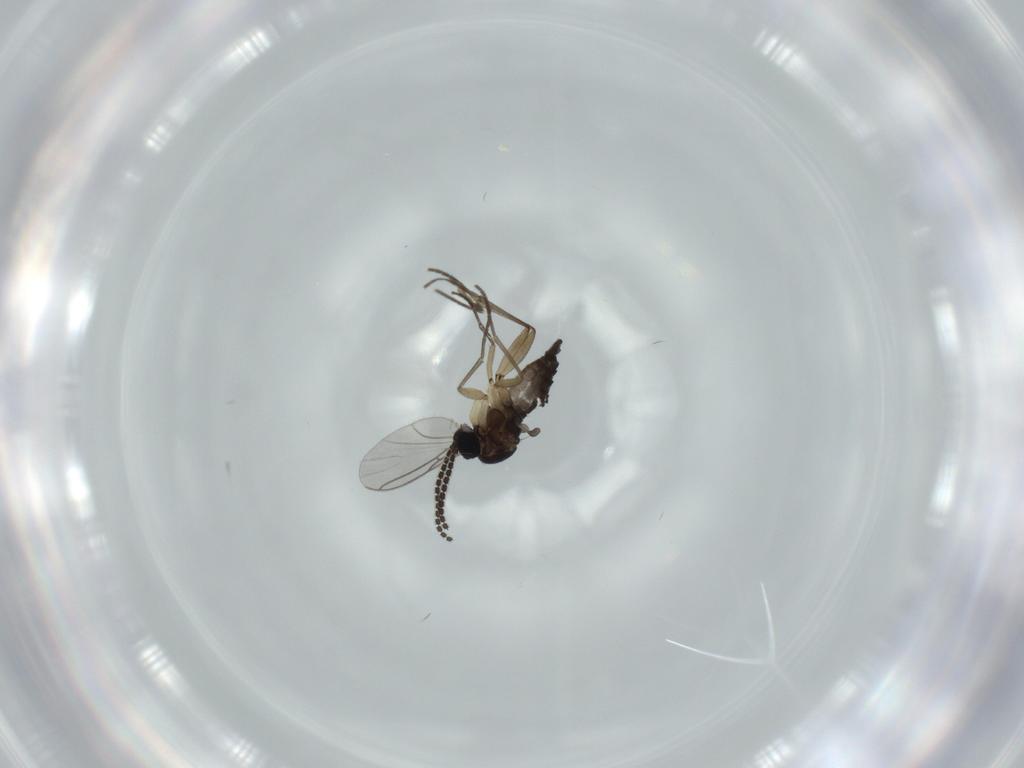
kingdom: Animalia
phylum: Arthropoda
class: Insecta
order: Diptera
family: Sciaridae
